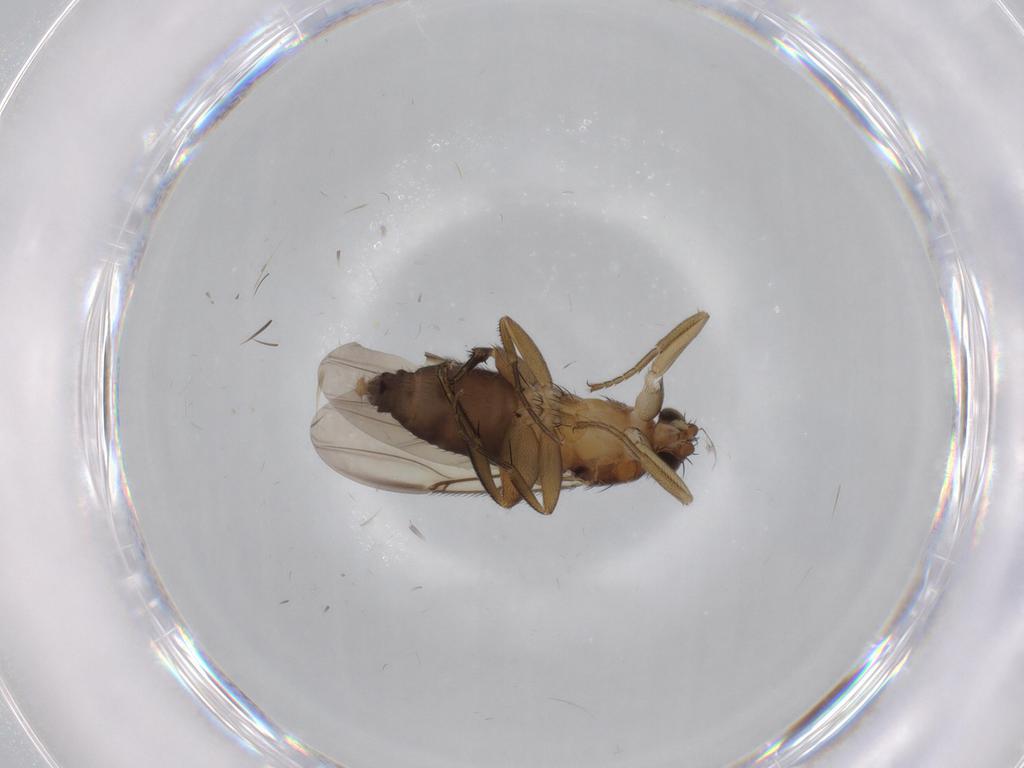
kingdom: Animalia
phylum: Arthropoda
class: Insecta
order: Diptera
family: Phoridae
